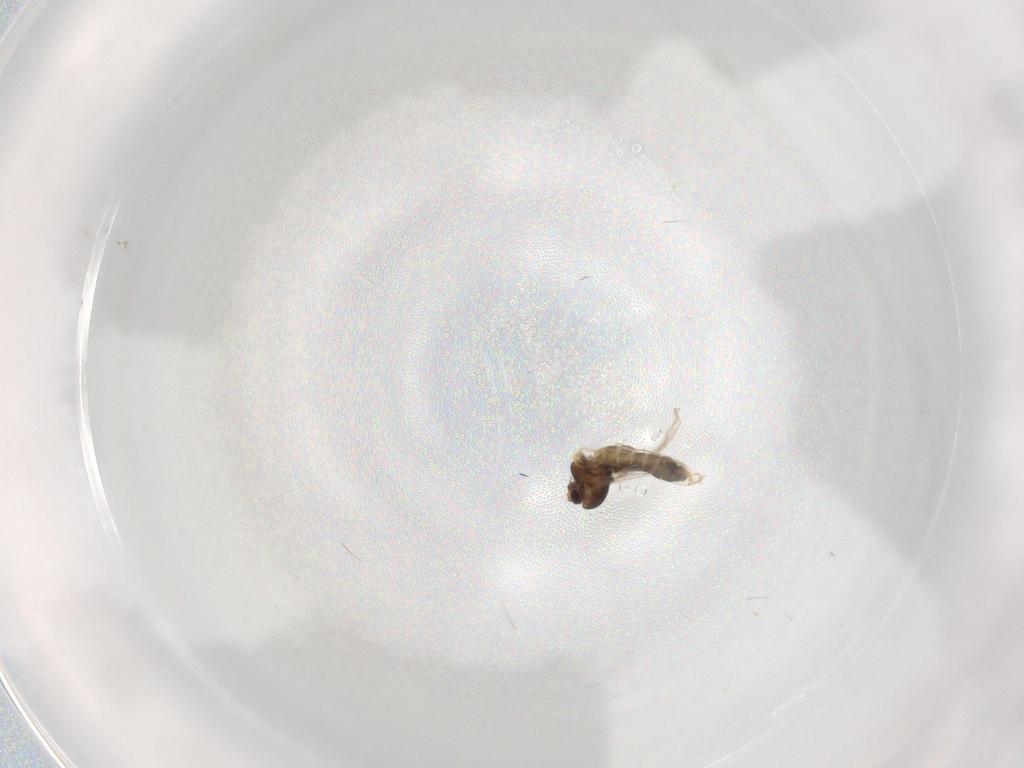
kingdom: Animalia
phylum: Arthropoda
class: Insecta
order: Diptera
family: Chironomidae
